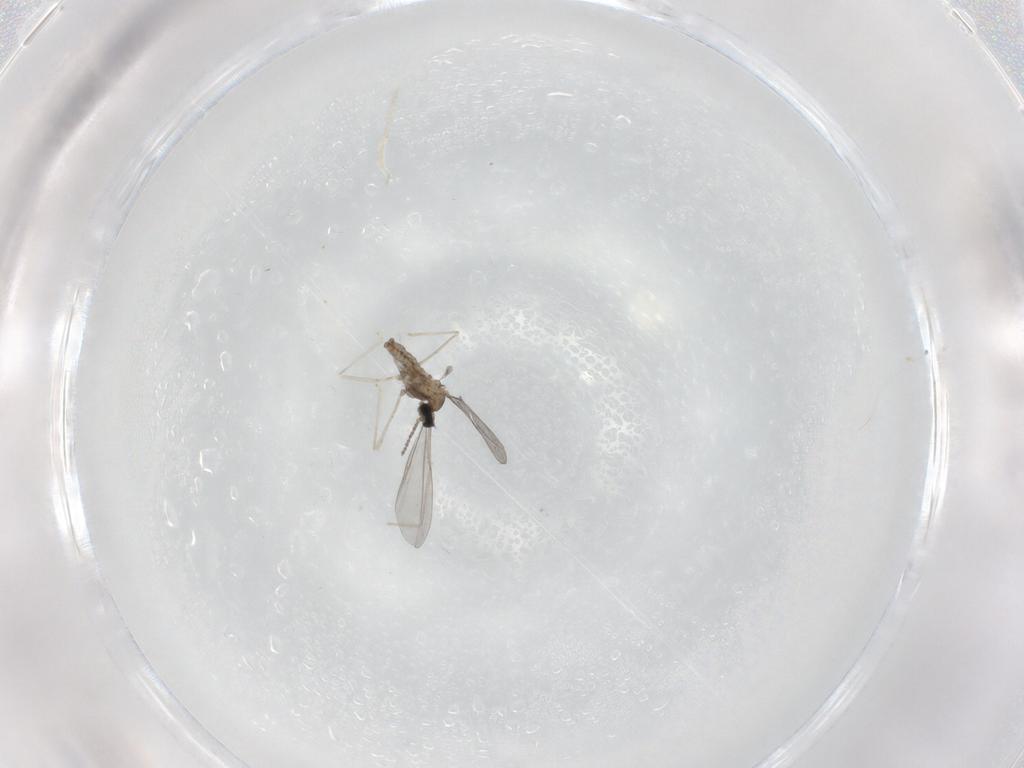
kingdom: Animalia
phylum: Arthropoda
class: Insecta
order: Diptera
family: Cecidomyiidae
